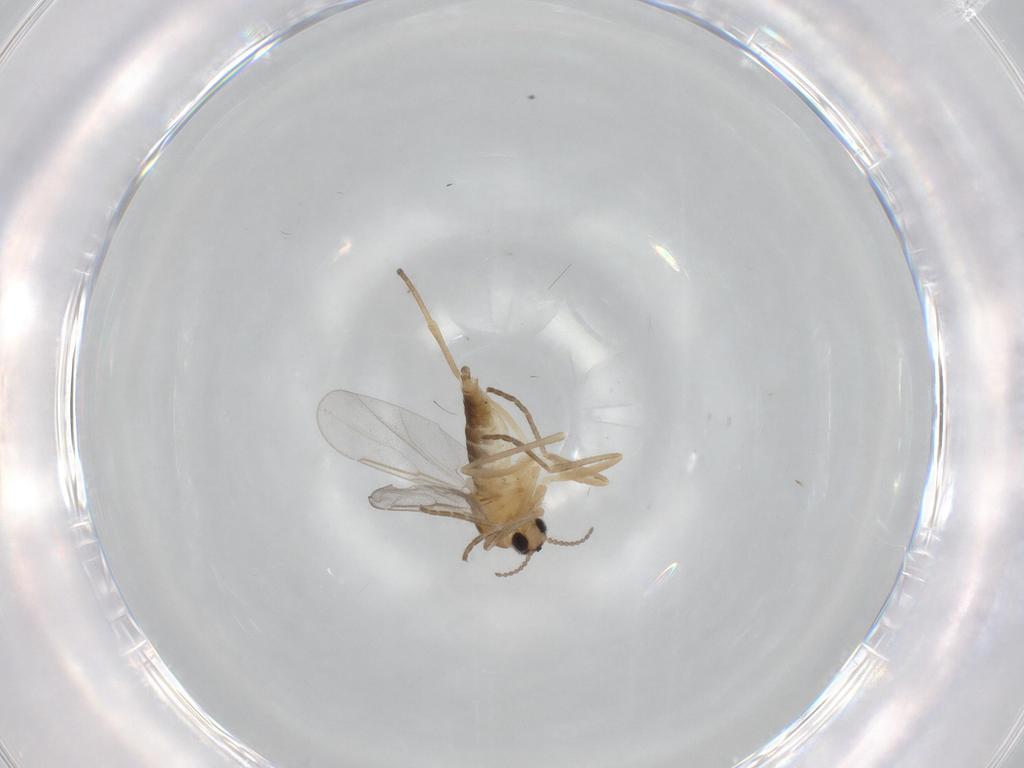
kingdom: Animalia
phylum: Arthropoda
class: Insecta
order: Diptera
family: Cecidomyiidae
